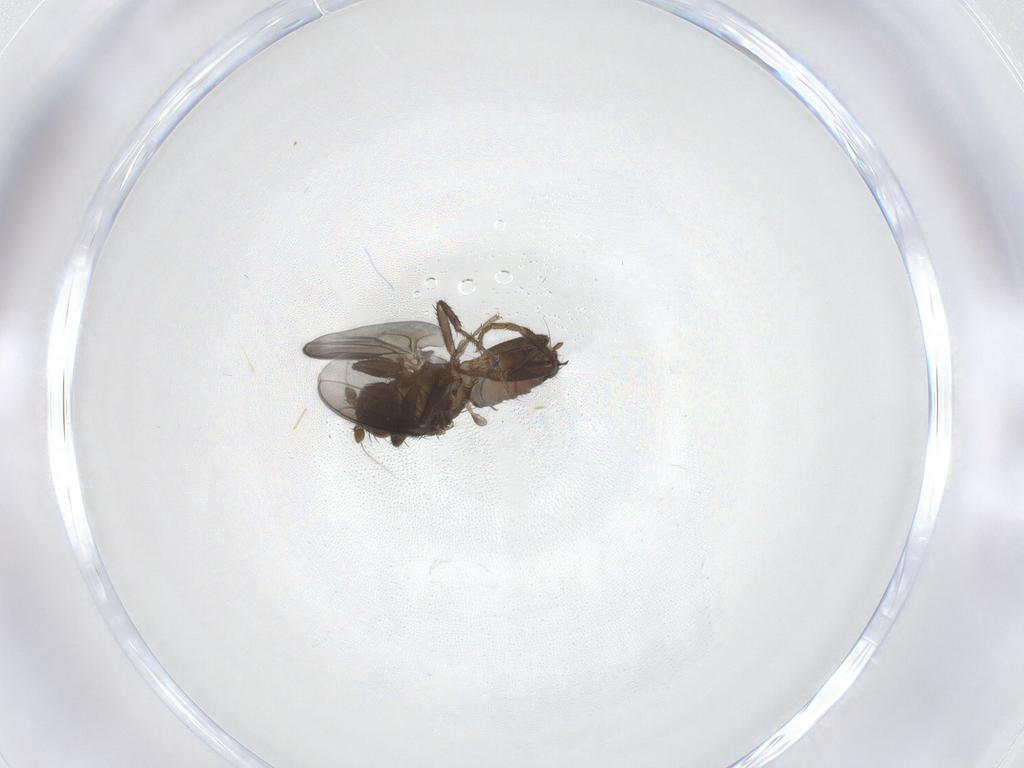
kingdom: Animalia
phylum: Arthropoda
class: Insecta
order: Diptera
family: Sphaeroceridae
